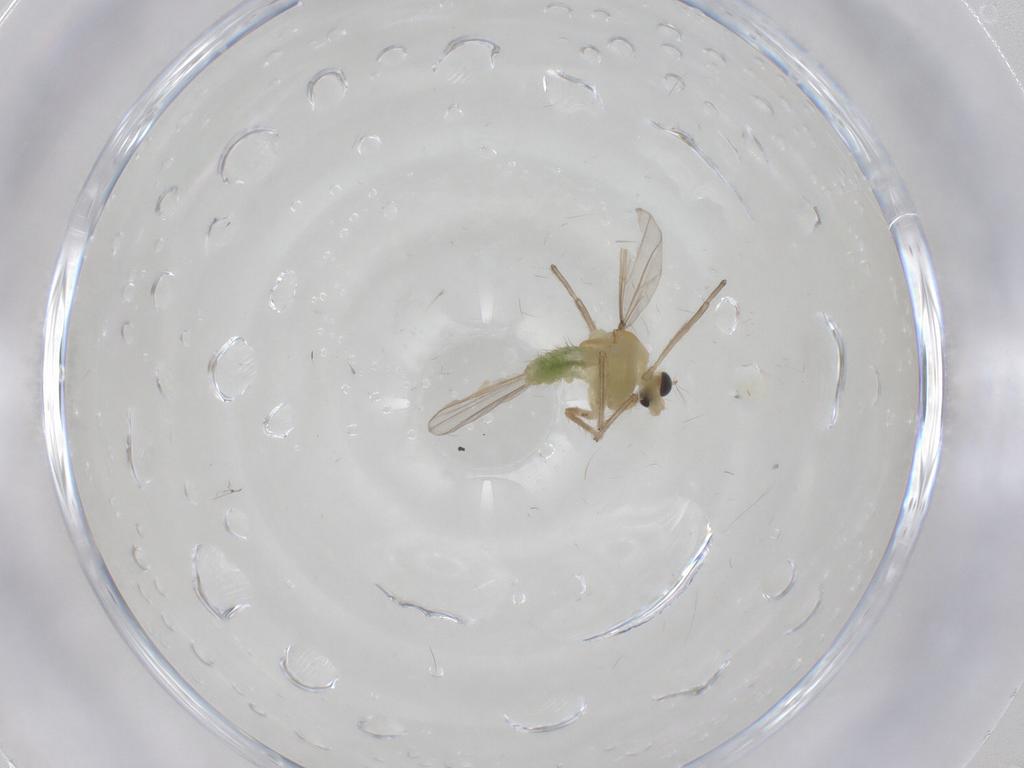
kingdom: Animalia
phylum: Arthropoda
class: Insecta
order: Diptera
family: Chironomidae
